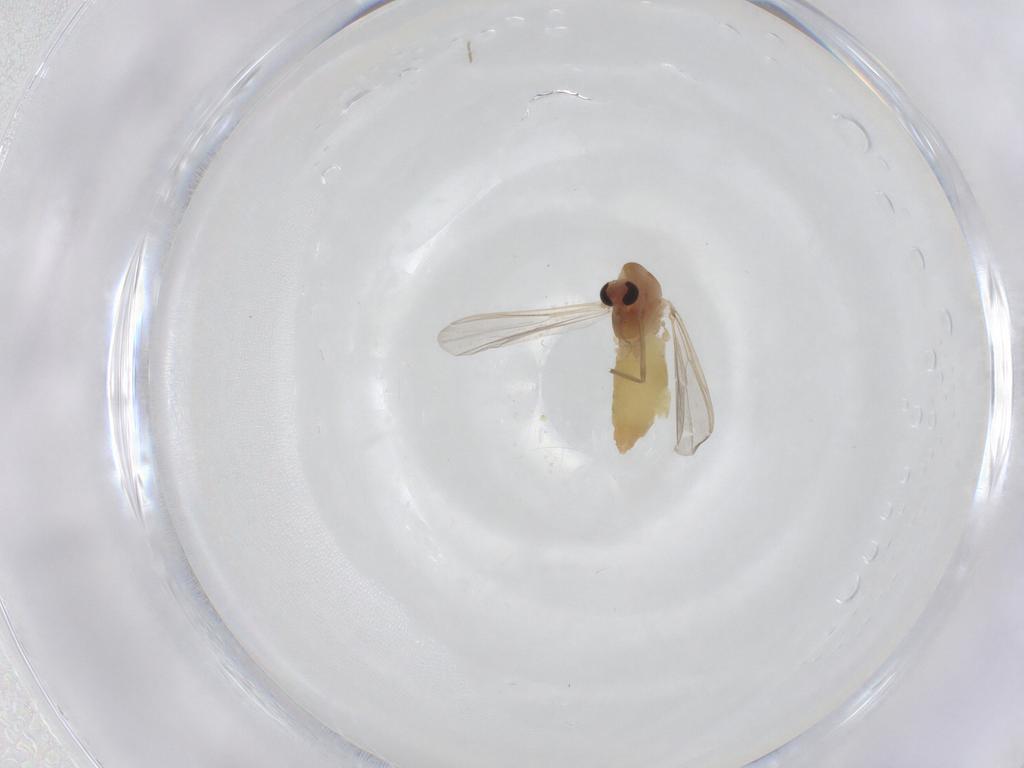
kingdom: Animalia
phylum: Arthropoda
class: Insecta
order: Diptera
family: Chironomidae
